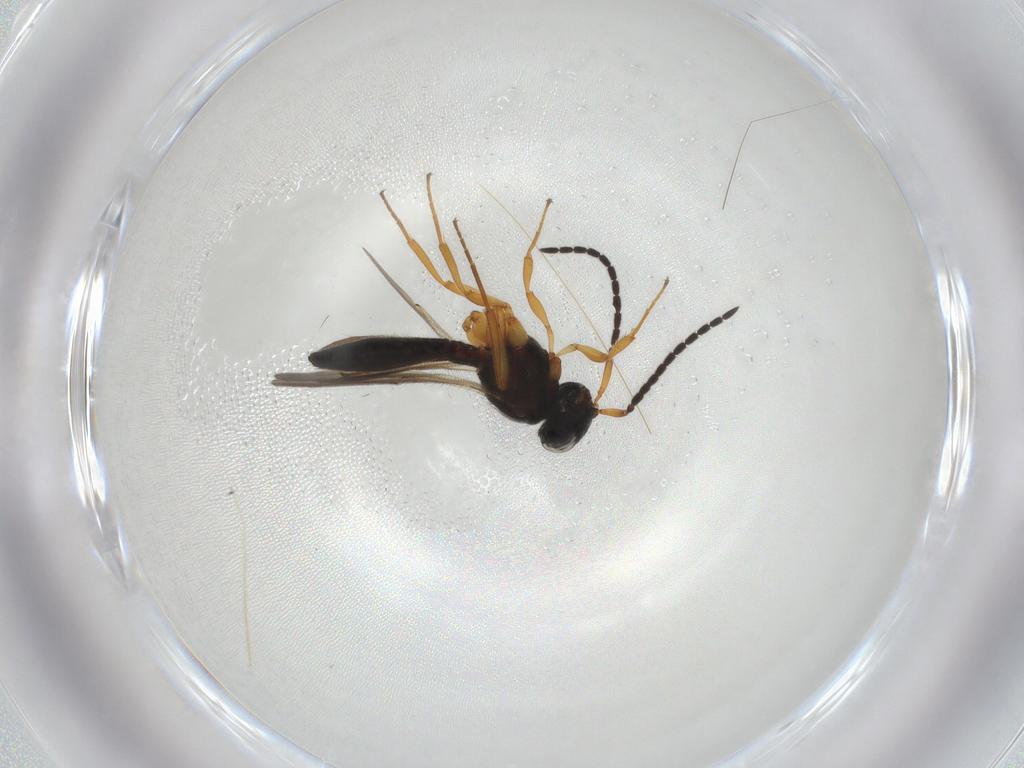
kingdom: Animalia
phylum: Arthropoda
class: Insecta
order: Hymenoptera
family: Scelionidae
